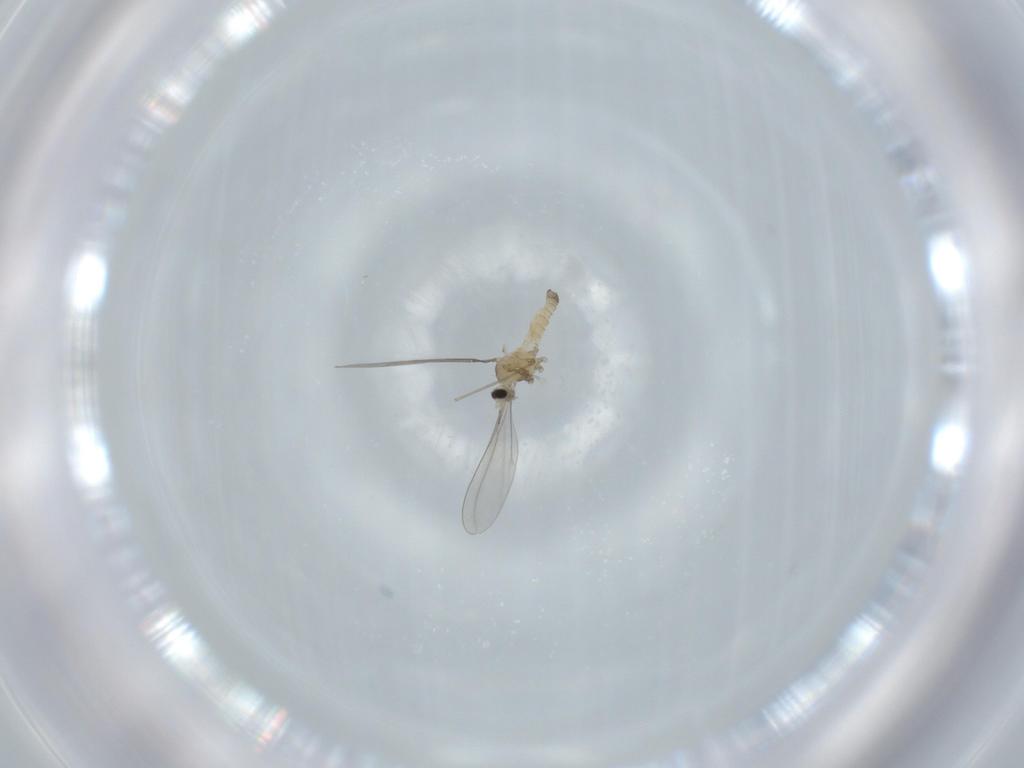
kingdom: Animalia
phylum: Arthropoda
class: Insecta
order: Diptera
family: Cecidomyiidae
